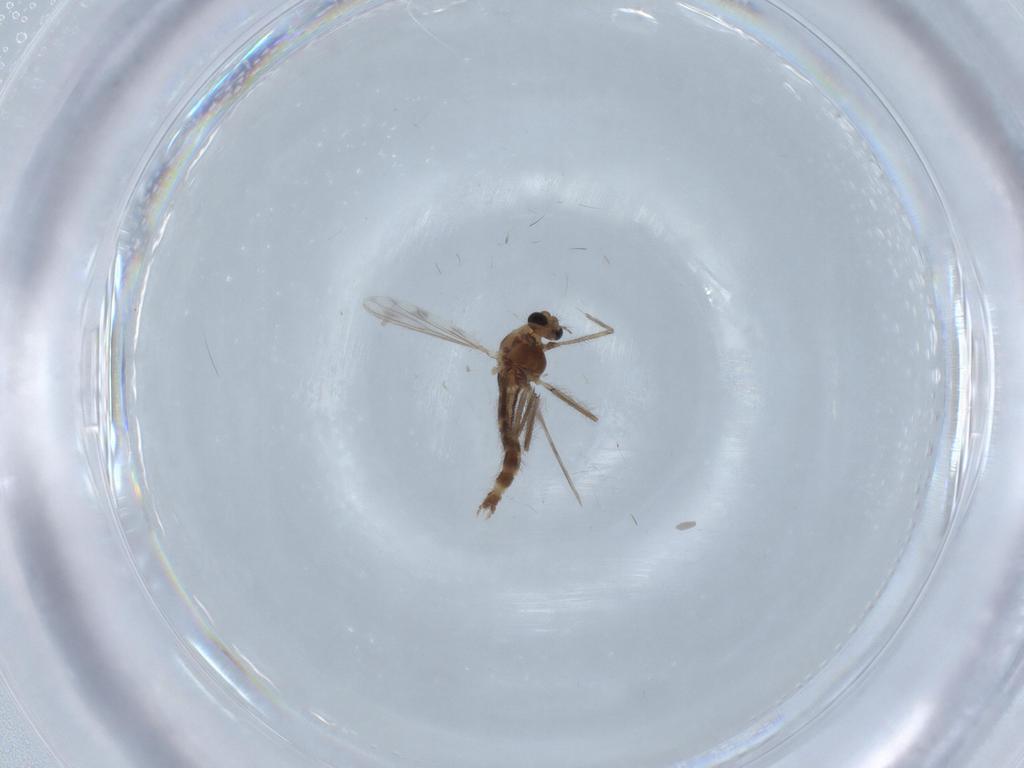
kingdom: Animalia
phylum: Arthropoda
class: Insecta
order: Diptera
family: Chironomidae
